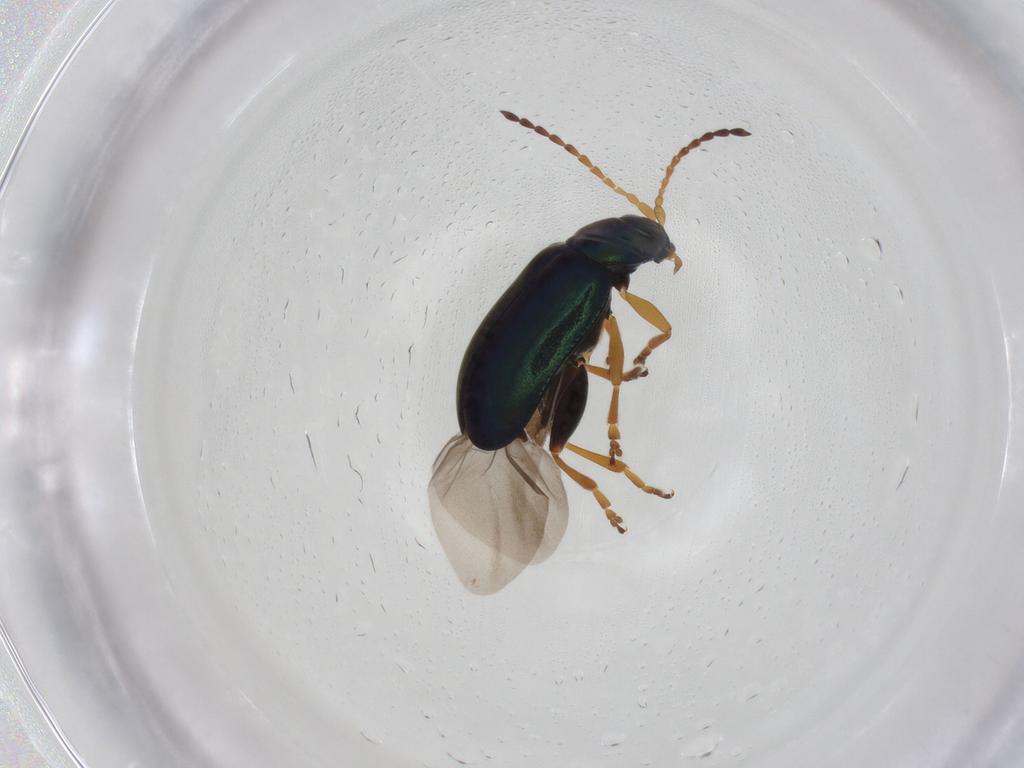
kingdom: Animalia
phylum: Arthropoda
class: Insecta
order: Coleoptera
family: Chrysomelidae
